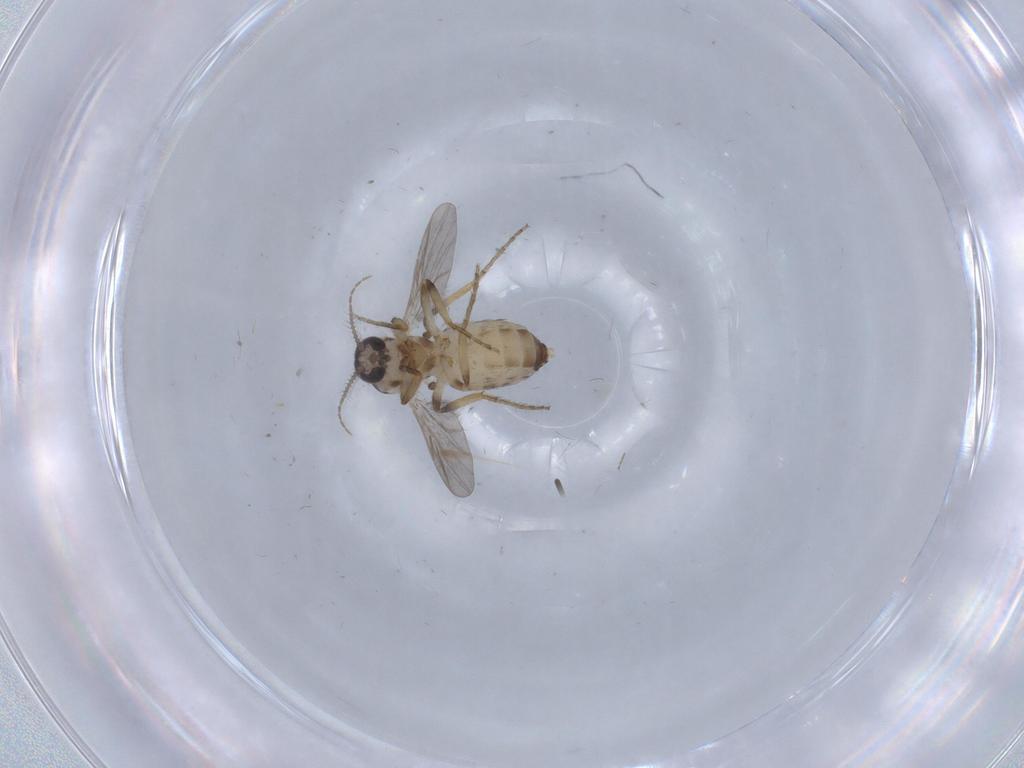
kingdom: Animalia
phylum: Arthropoda
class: Insecta
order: Diptera
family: Ceratopogonidae
